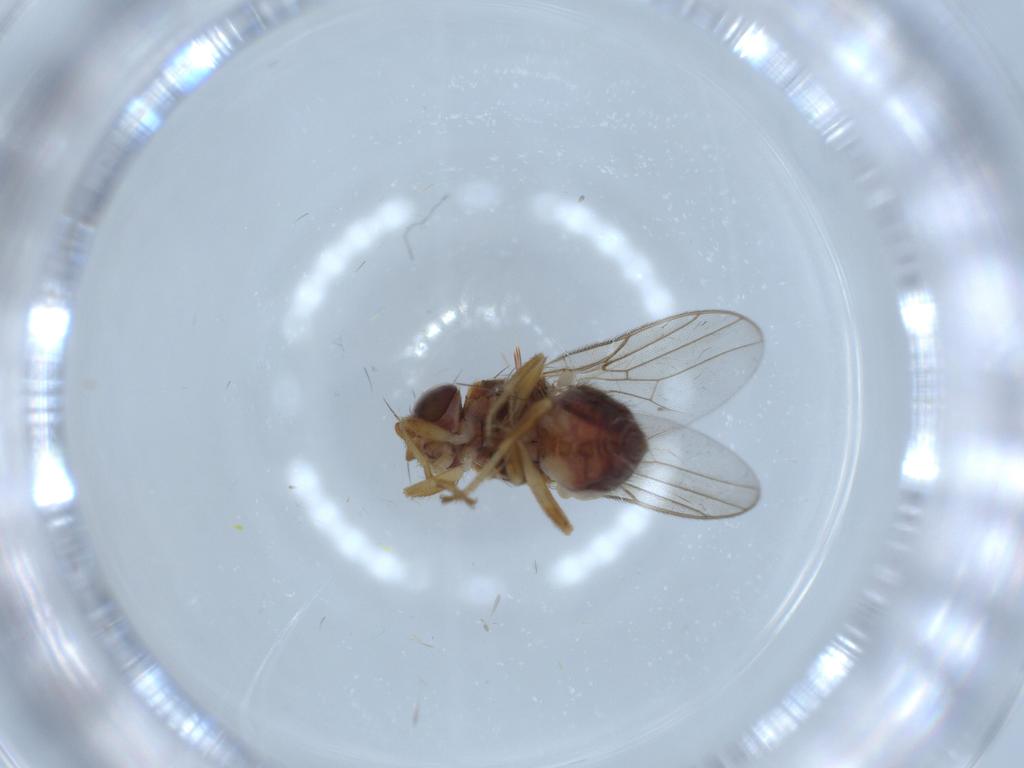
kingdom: Animalia
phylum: Arthropoda
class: Insecta
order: Diptera
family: Chloropidae
